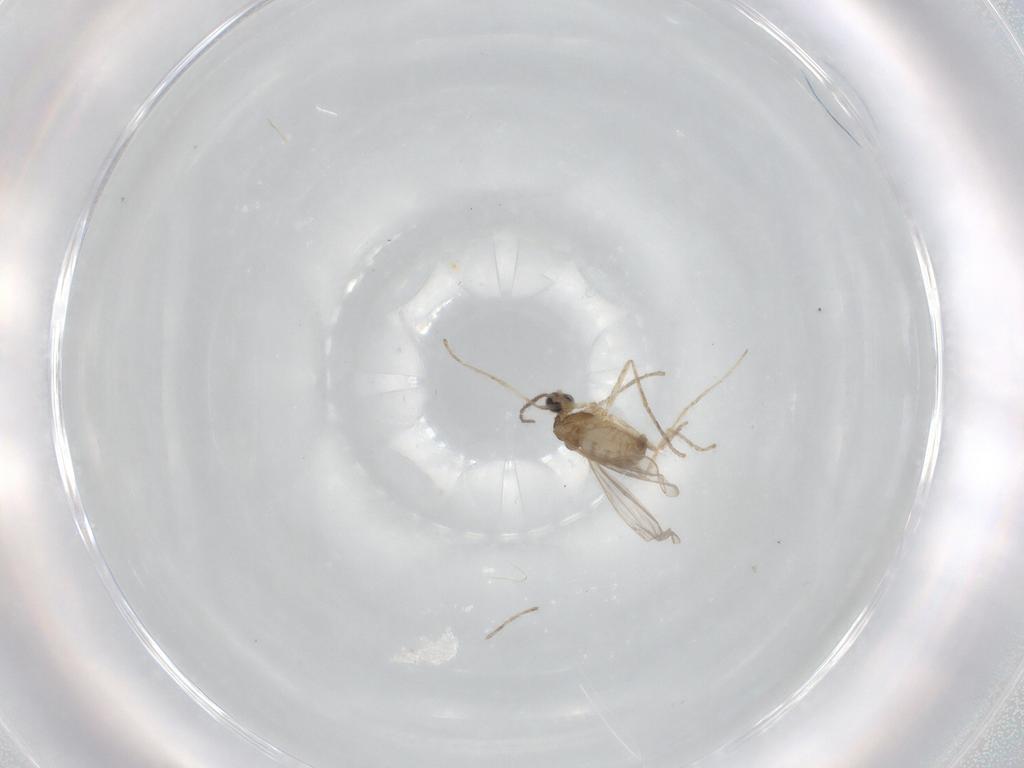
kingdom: Animalia
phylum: Arthropoda
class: Insecta
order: Diptera
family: Cecidomyiidae
